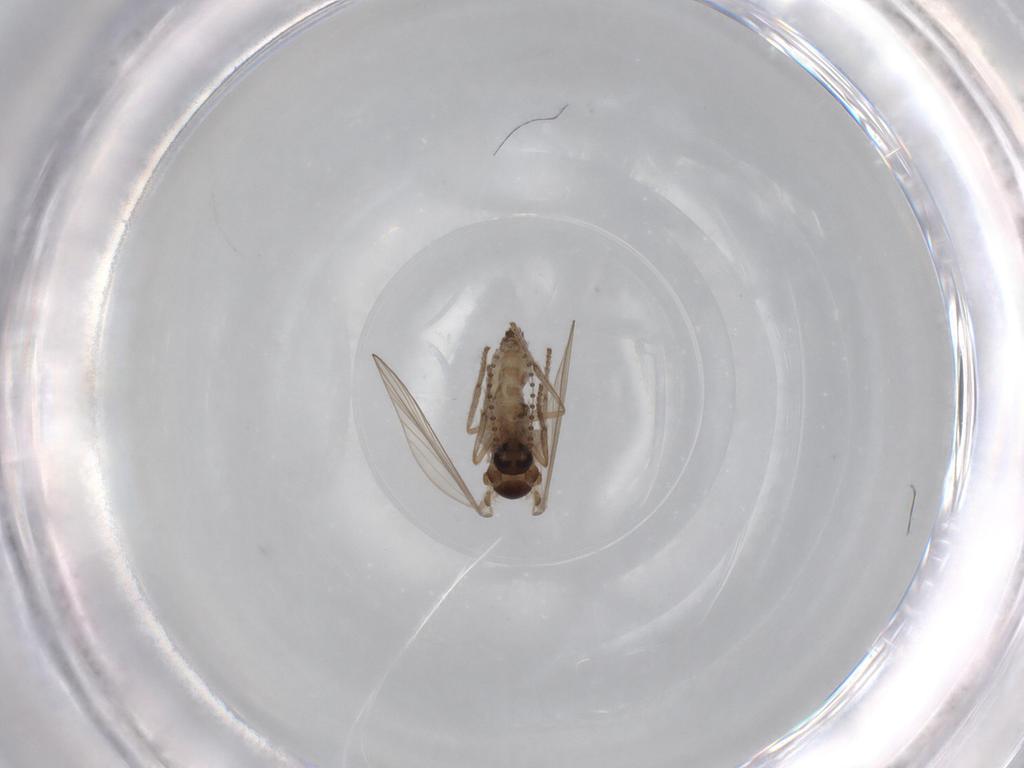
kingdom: Animalia
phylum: Arthropoda
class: Insecta
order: Diptera
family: Psychodidae
